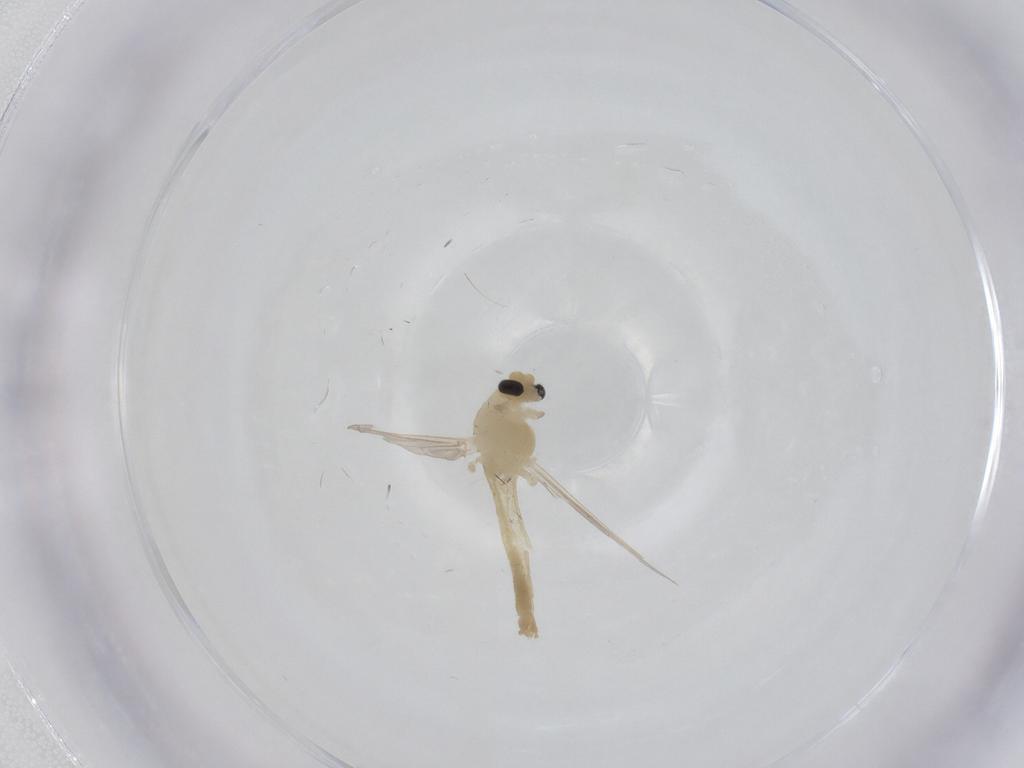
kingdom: Animalia
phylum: Arthropoda
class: Insecta
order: Diptera
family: Chironomidae
